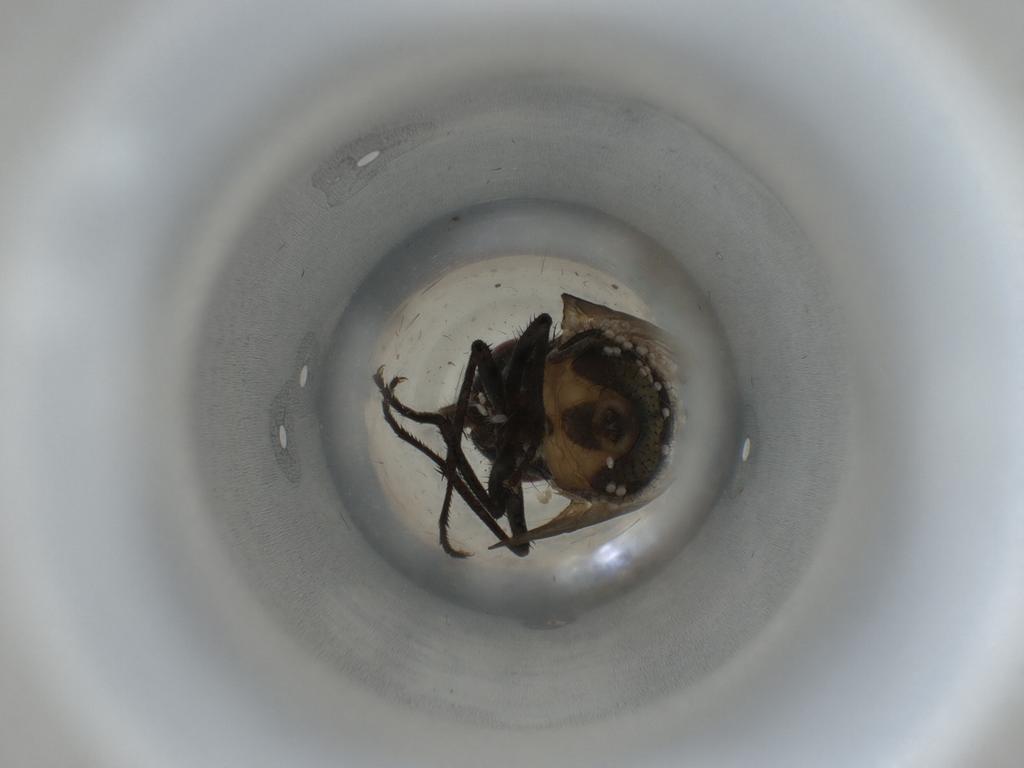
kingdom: Animalia
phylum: Arthropoda
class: Insecta
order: Diptera
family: Muscidae
